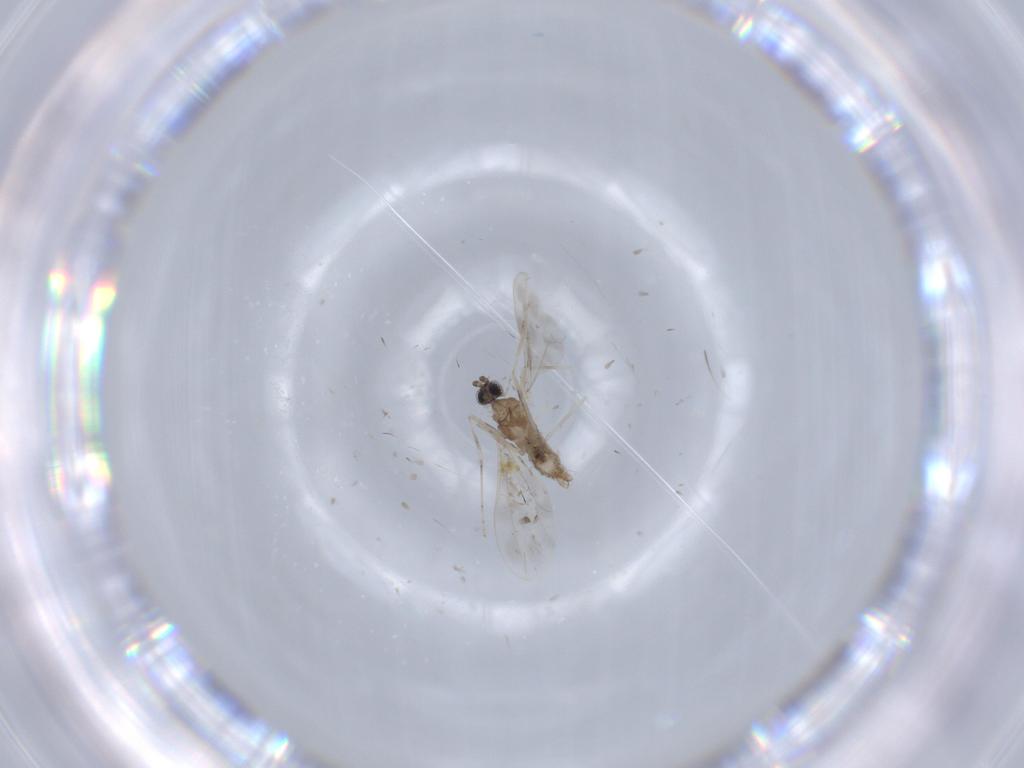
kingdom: Animalia
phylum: Arthropoda
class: Insecta
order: Diptera
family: Cecidomyiidae
